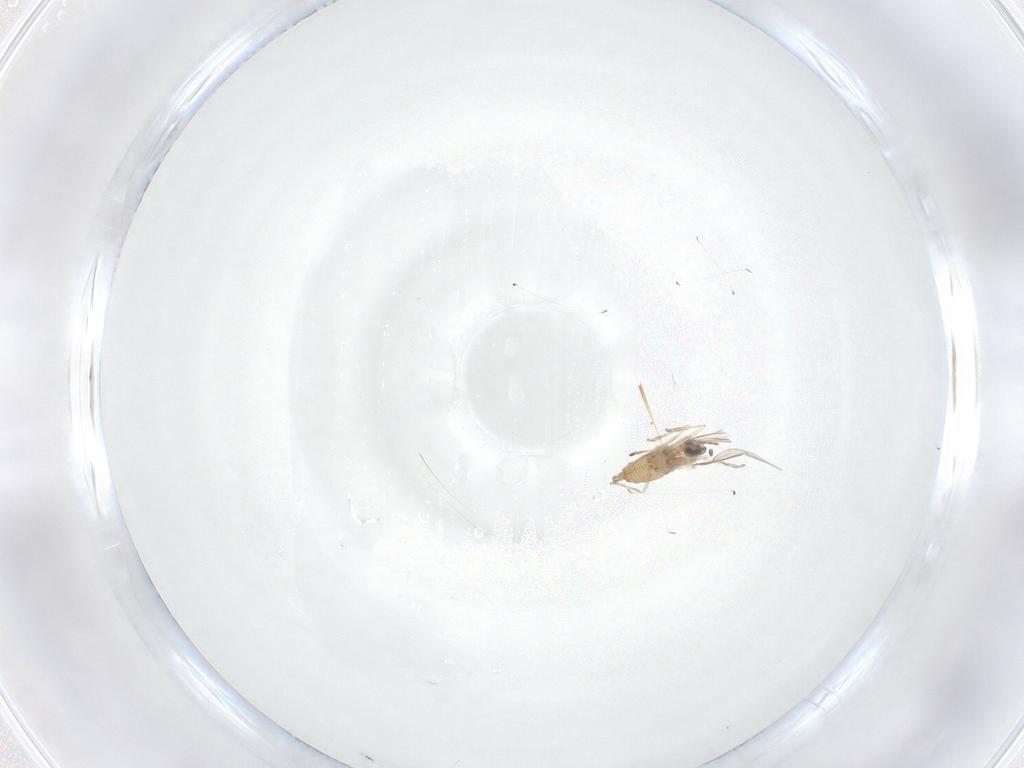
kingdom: Animalia
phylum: Arthropoda
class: Insecta
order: Diptera
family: Cecidomyiidae
